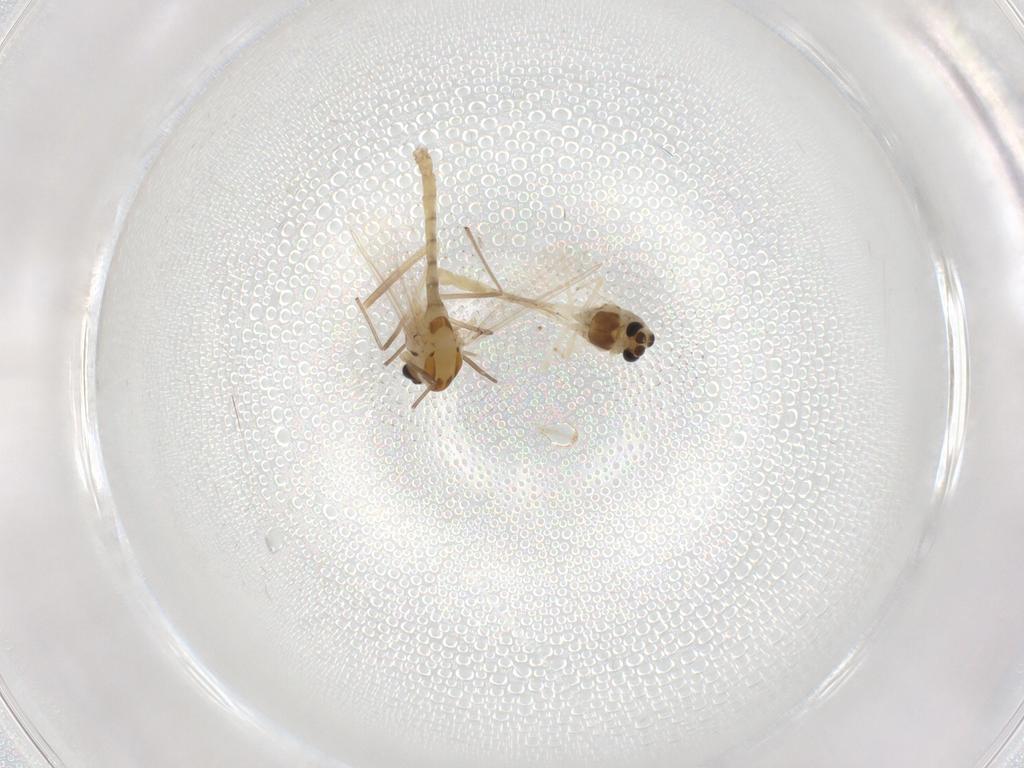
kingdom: Animalia
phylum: Arthropoda
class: Insecta
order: Diptera
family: Chironomidae
